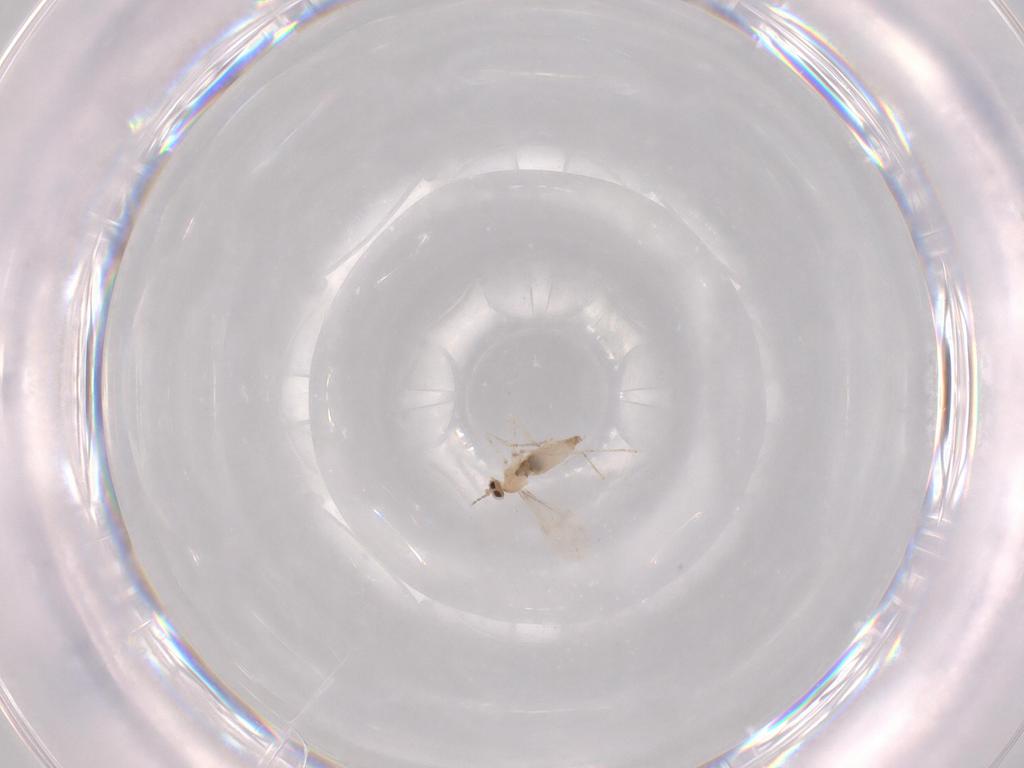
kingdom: Animalia
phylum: Arthropoda
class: Insecta
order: Diptera
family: Cecidomyiidae
